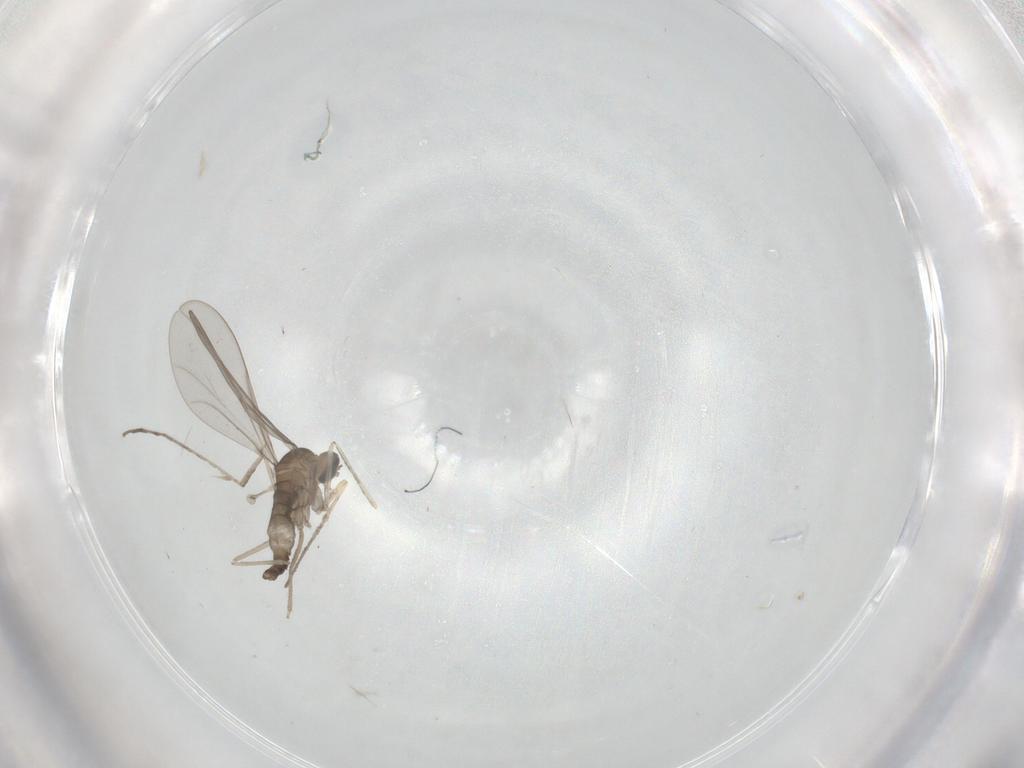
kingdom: Animalia
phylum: Arthropoda
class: Insecta
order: Diptera
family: Cecidomyiidae
